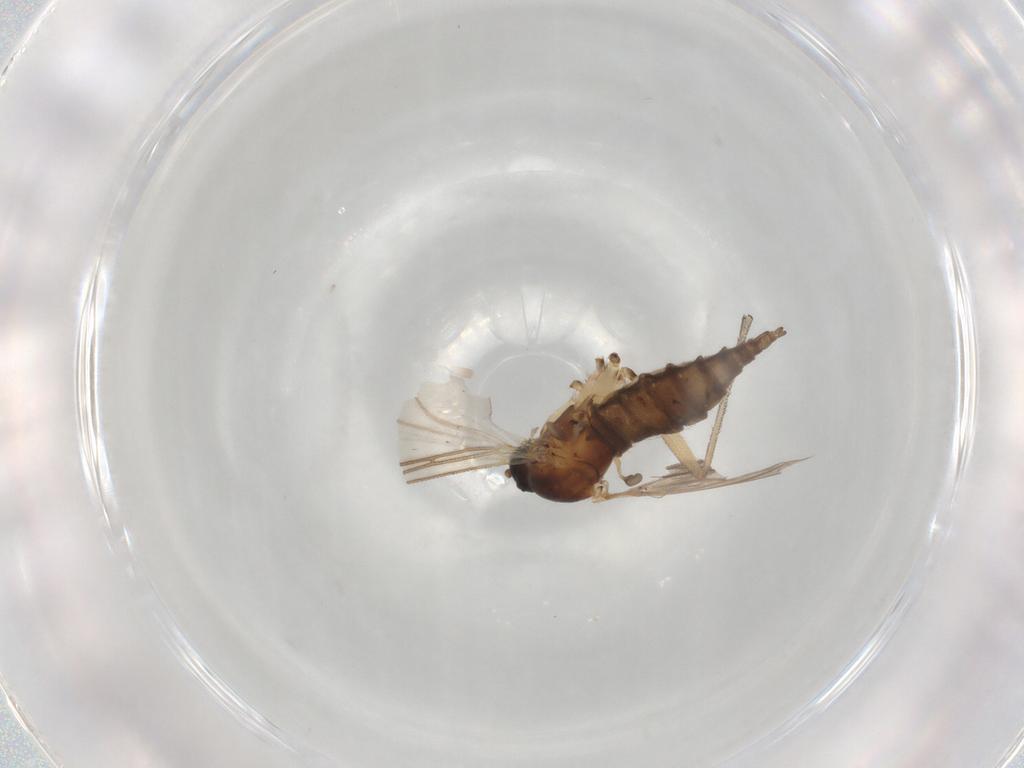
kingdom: Animalia
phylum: Arthropoda
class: Insecta
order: Diptera
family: Sciaridae
